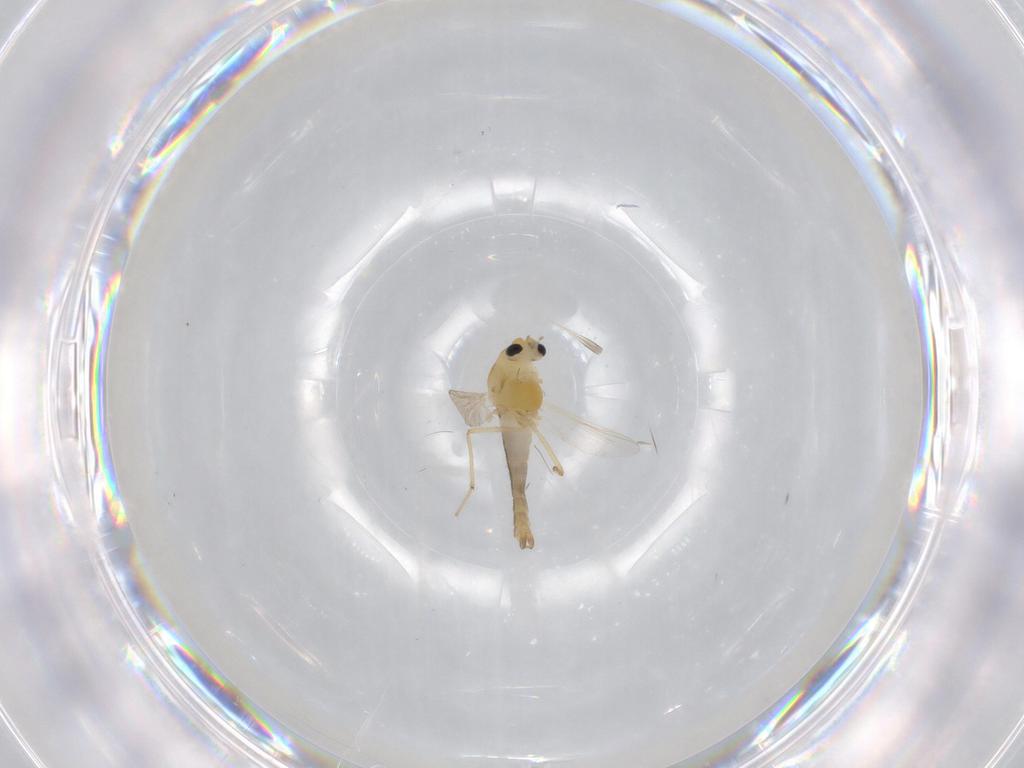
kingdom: Animalia
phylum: Arthropoda
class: Insecta
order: Diptera
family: Chironomidae
